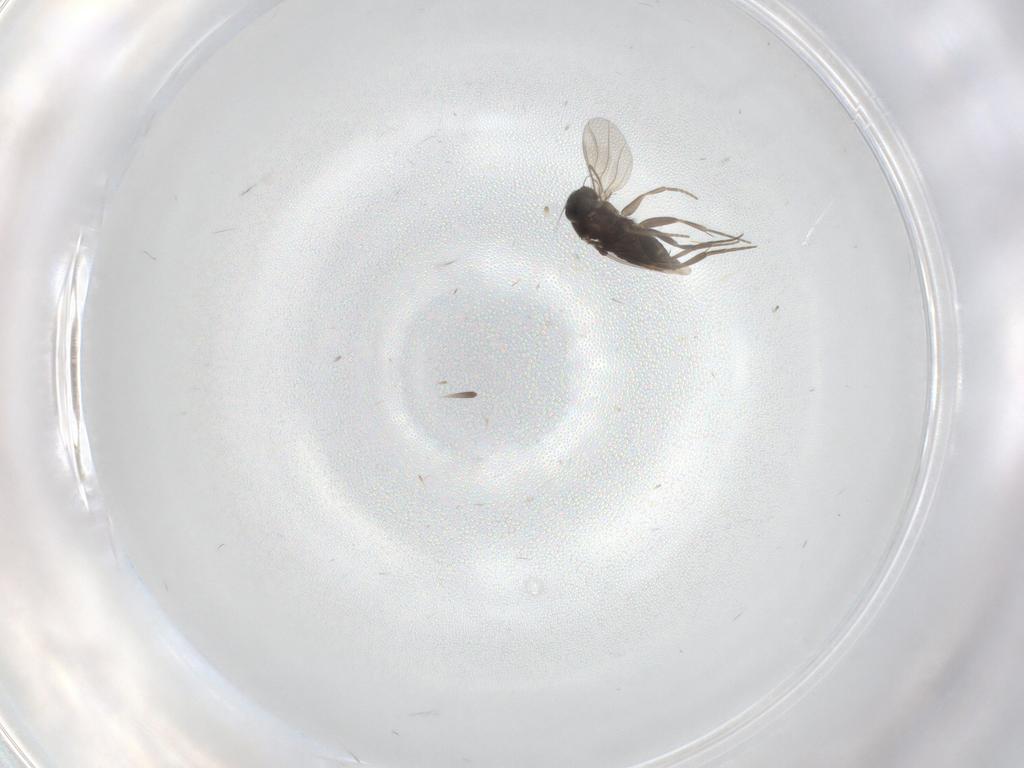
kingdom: Animalia
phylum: Arthropoda
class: Insecta
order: Diptera
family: Phoridae
